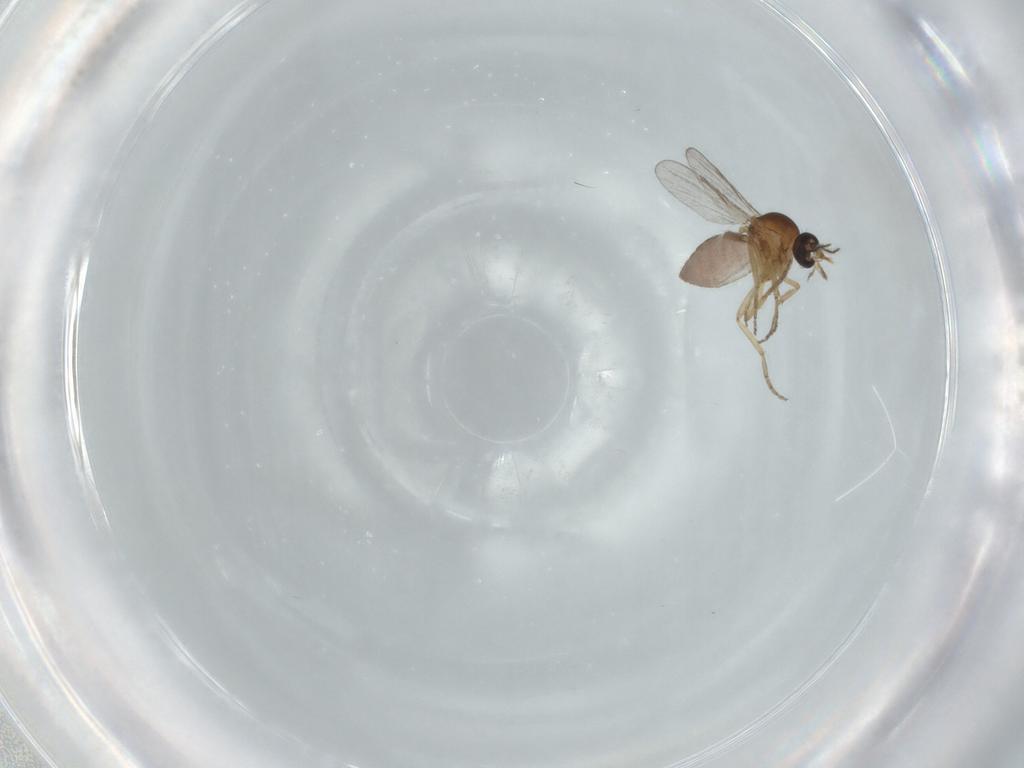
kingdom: Animalia
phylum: Arthropoda
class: Insecta
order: Diptera
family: Ceratopogonidae
